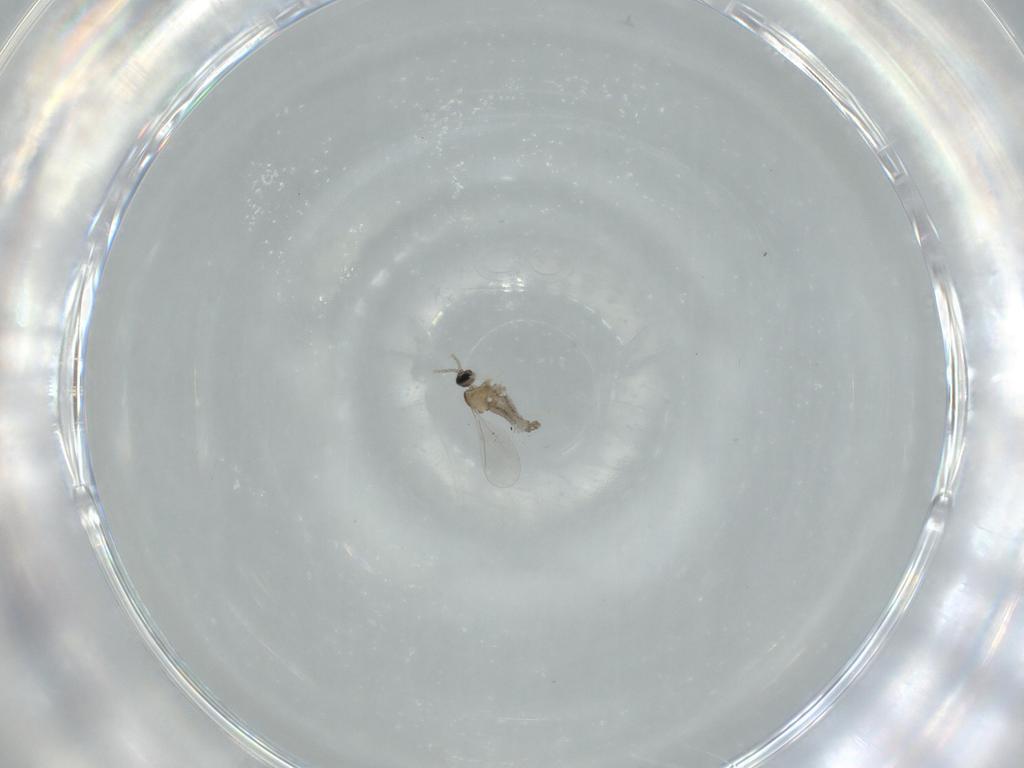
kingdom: Animalia
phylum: Arthropoda
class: Insecta
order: Diptera
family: Cecidomyiidae
